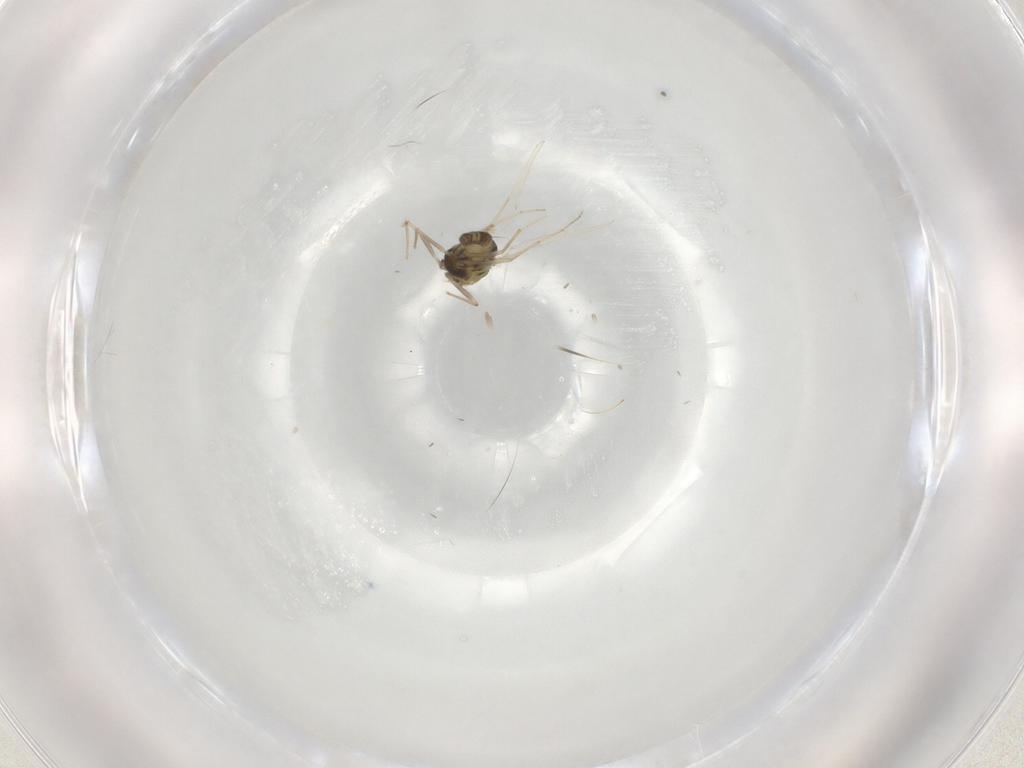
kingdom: Animalia
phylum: Arthropoda
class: Insecta
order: Diptera
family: Chironomidae
